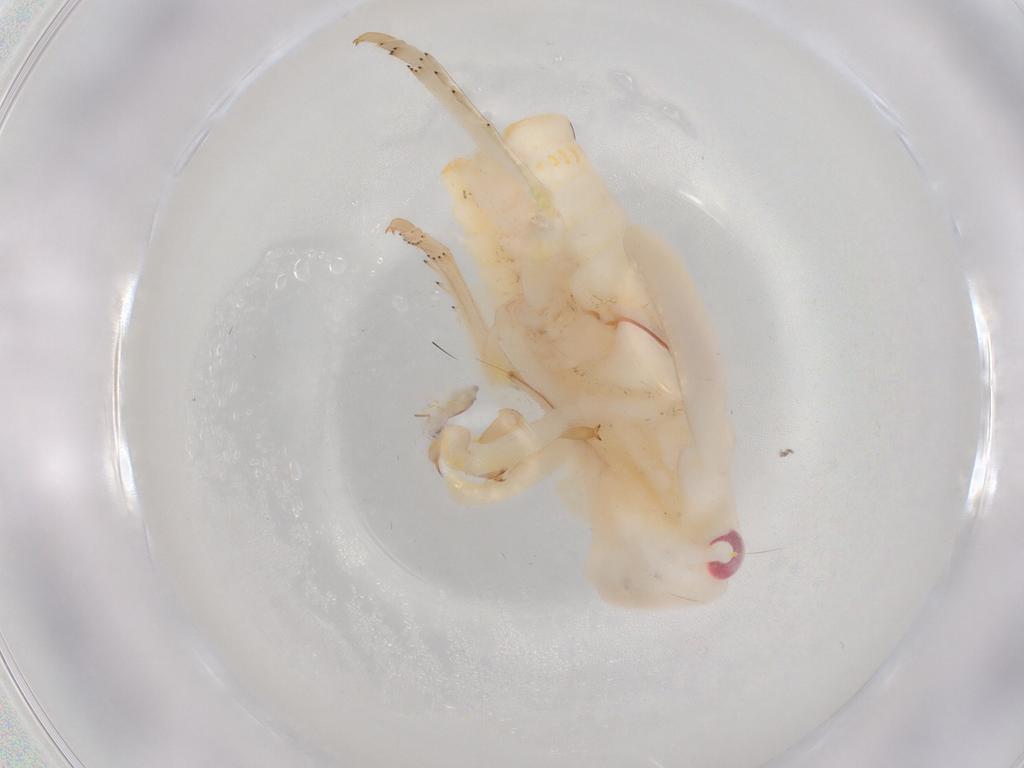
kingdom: Animalia
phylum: Arthropoda
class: Insecta
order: Hemiptera
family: Flatidae
